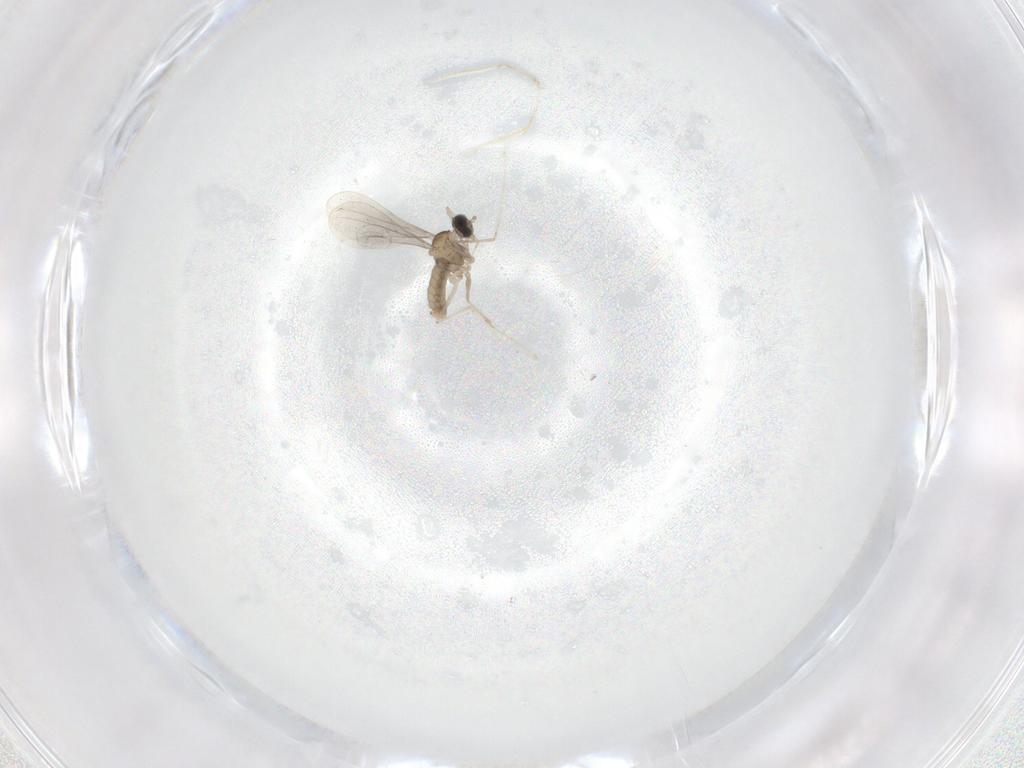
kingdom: Animalia
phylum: Arthropoda
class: Insecta
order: Diptera
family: Cecidomyiidae
